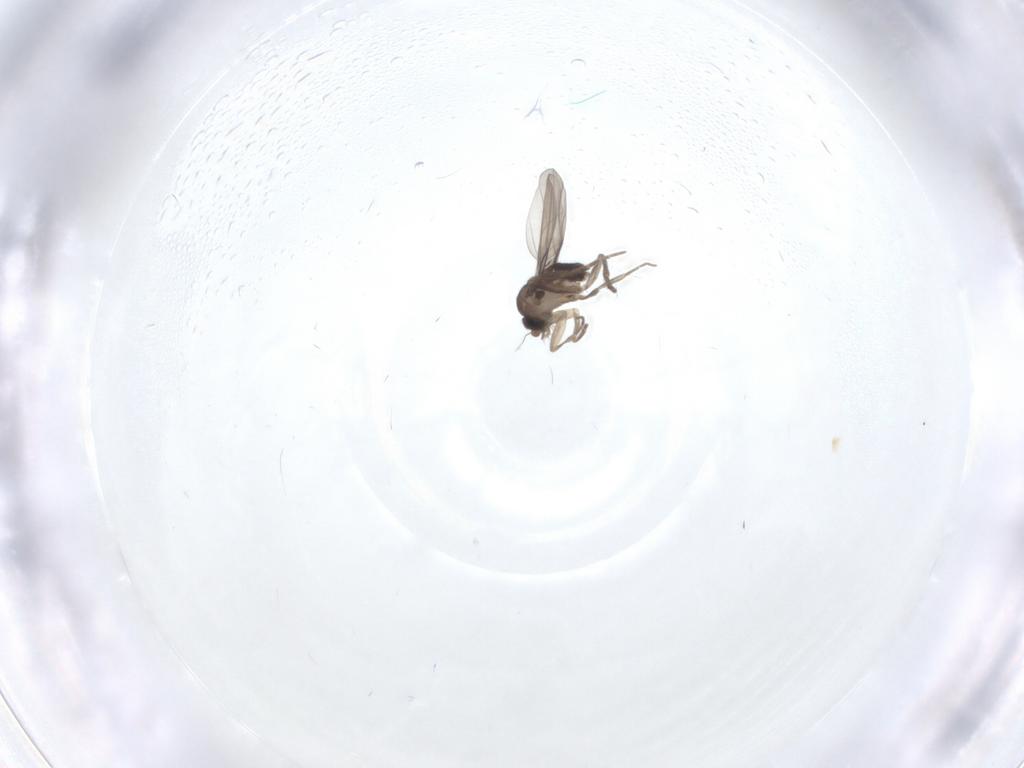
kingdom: Animalia
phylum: Arthropoda
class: Insecta
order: Diptera
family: Phoridae
